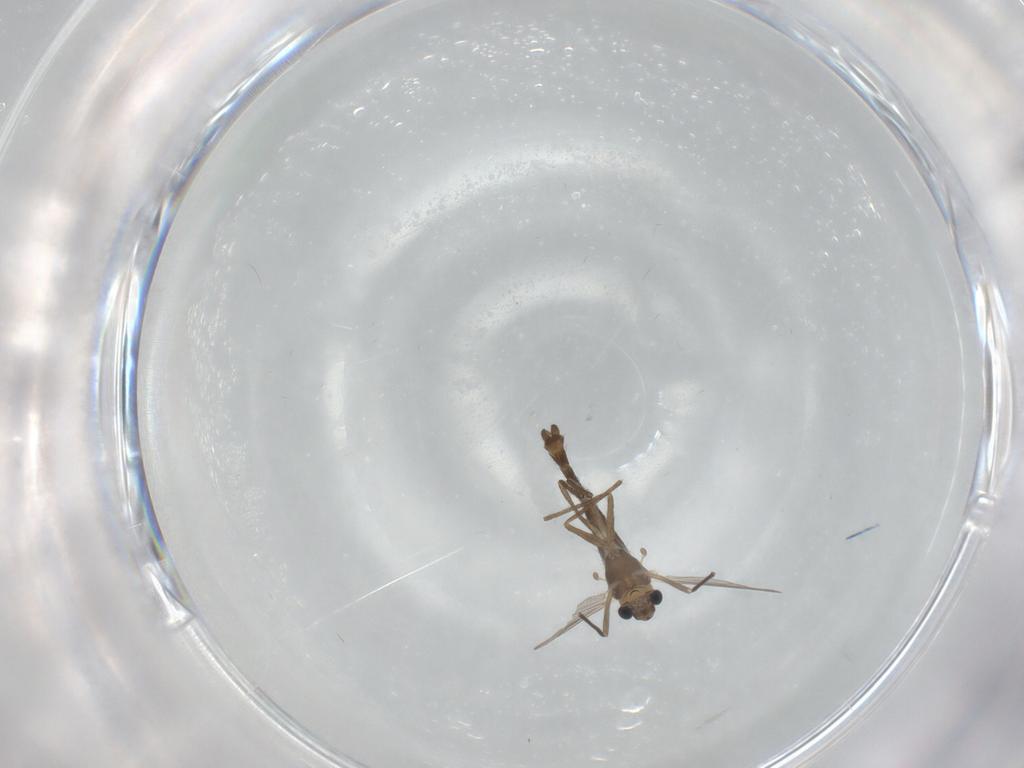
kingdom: Animalia
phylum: Arthropoda
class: Insecta
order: Diptera
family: Chironomidae
